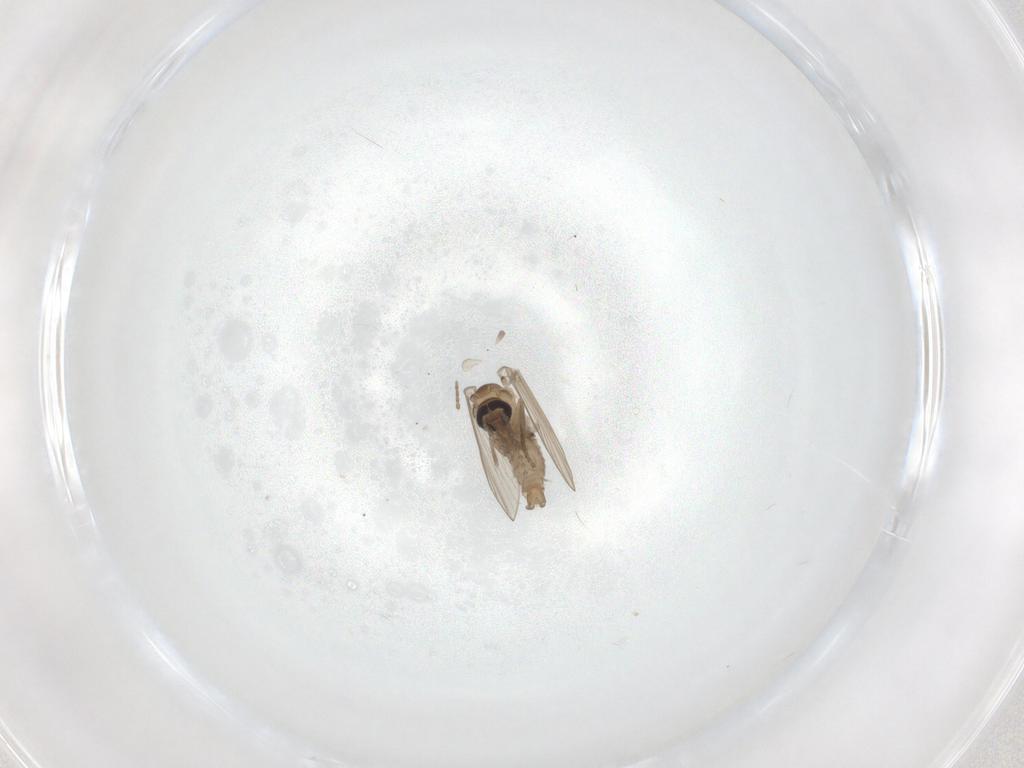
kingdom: Animalia
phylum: Arthropoda
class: Insecta
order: Diptera
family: Psychodidae
